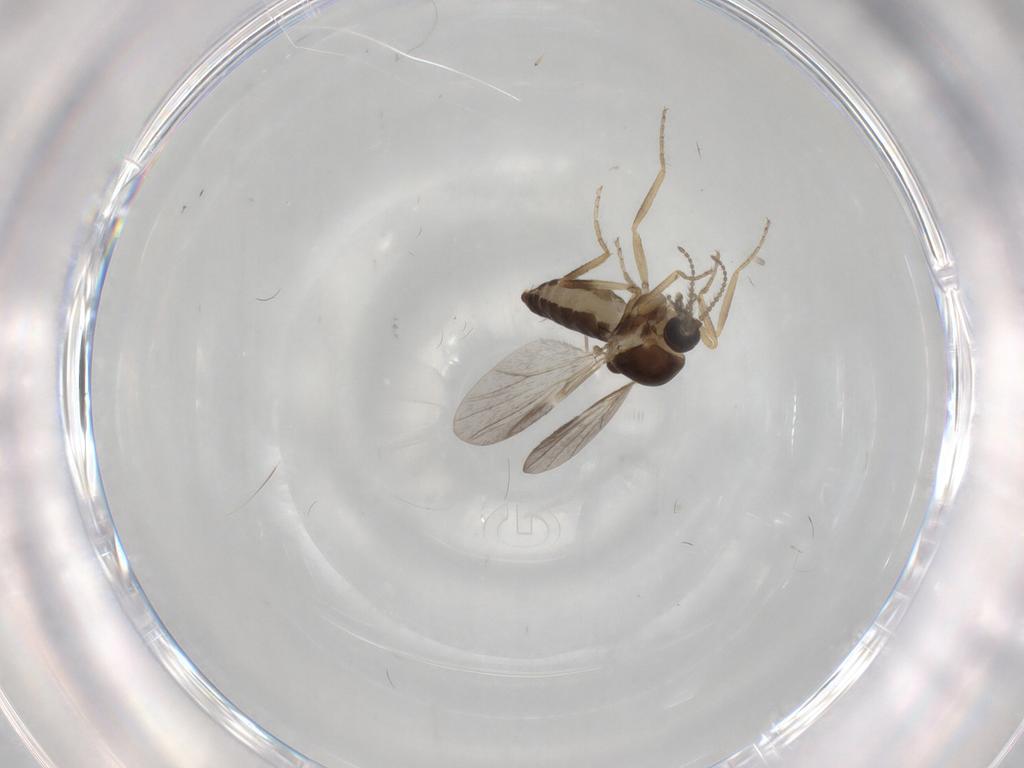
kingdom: Animalia
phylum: Arthropoda
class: Insecta
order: Diptera
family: Ceratopogonidae
